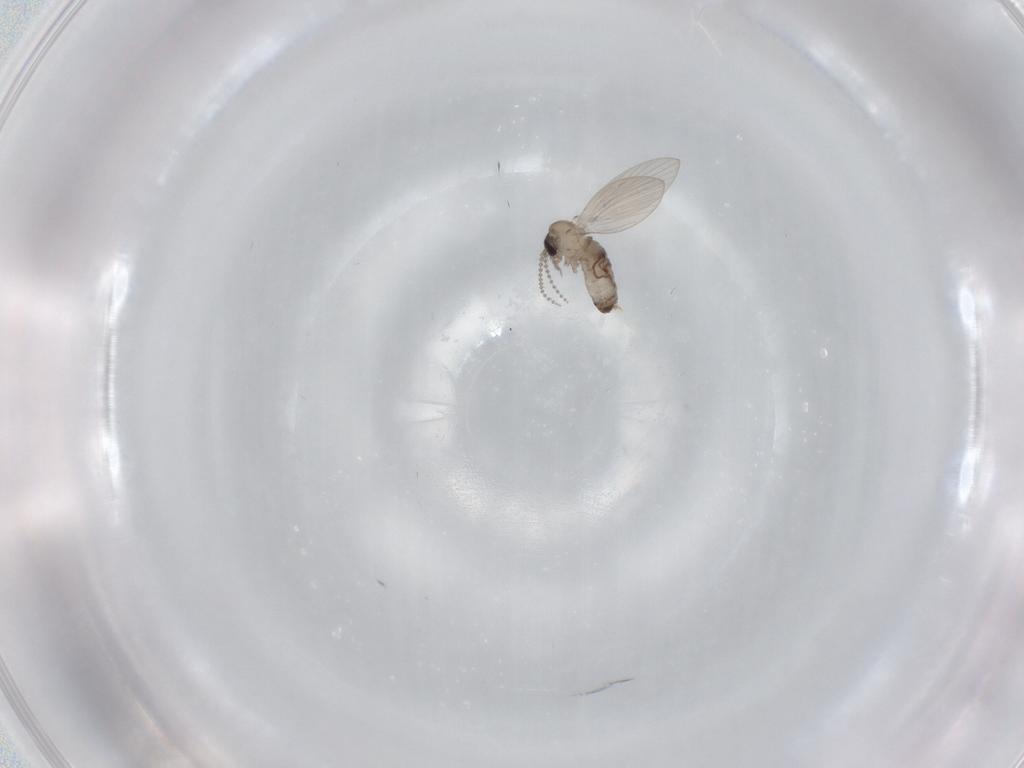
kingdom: Animalia
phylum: Arthropoda
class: Insecta
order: Diptera
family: Psychodidae
